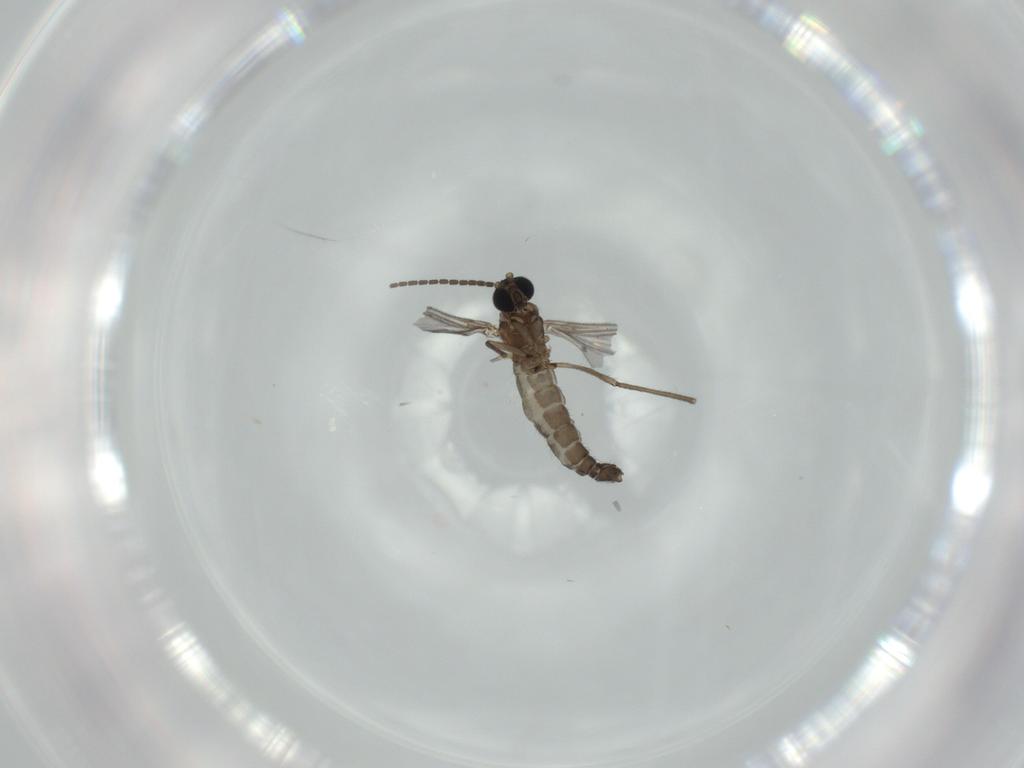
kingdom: Animalia
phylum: Arthropoda
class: Insecta
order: Diptera
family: Sciaridae
